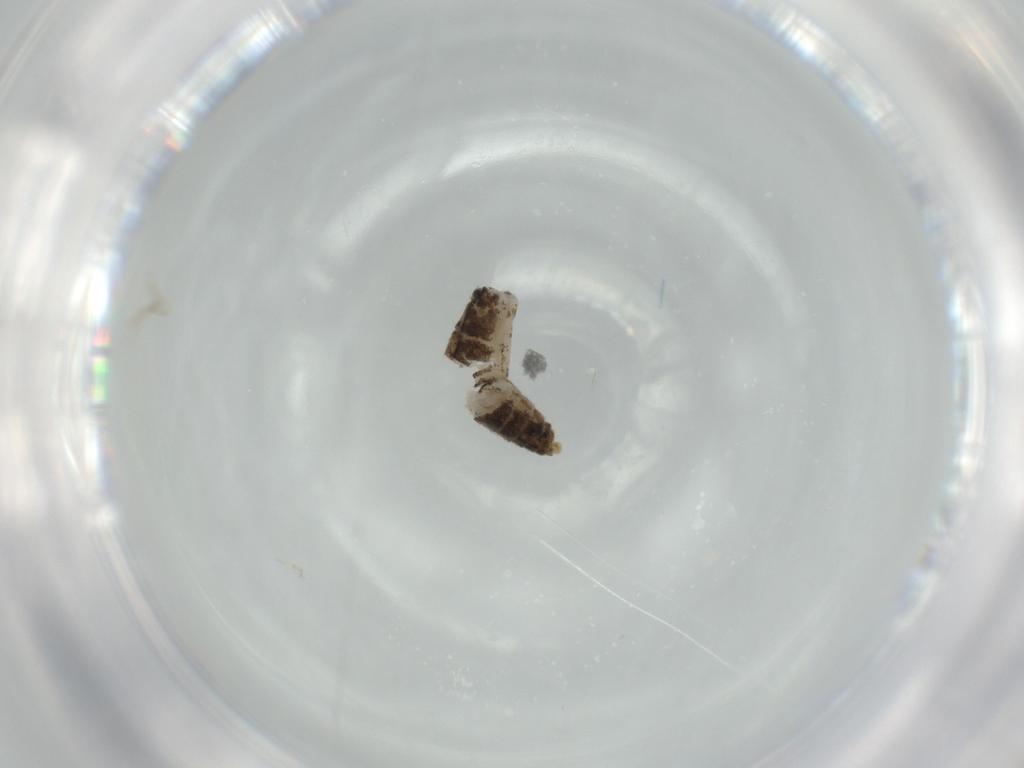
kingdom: Animalia
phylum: Arthropoda
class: Insecta
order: Diptera
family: Ceratopogonidae
